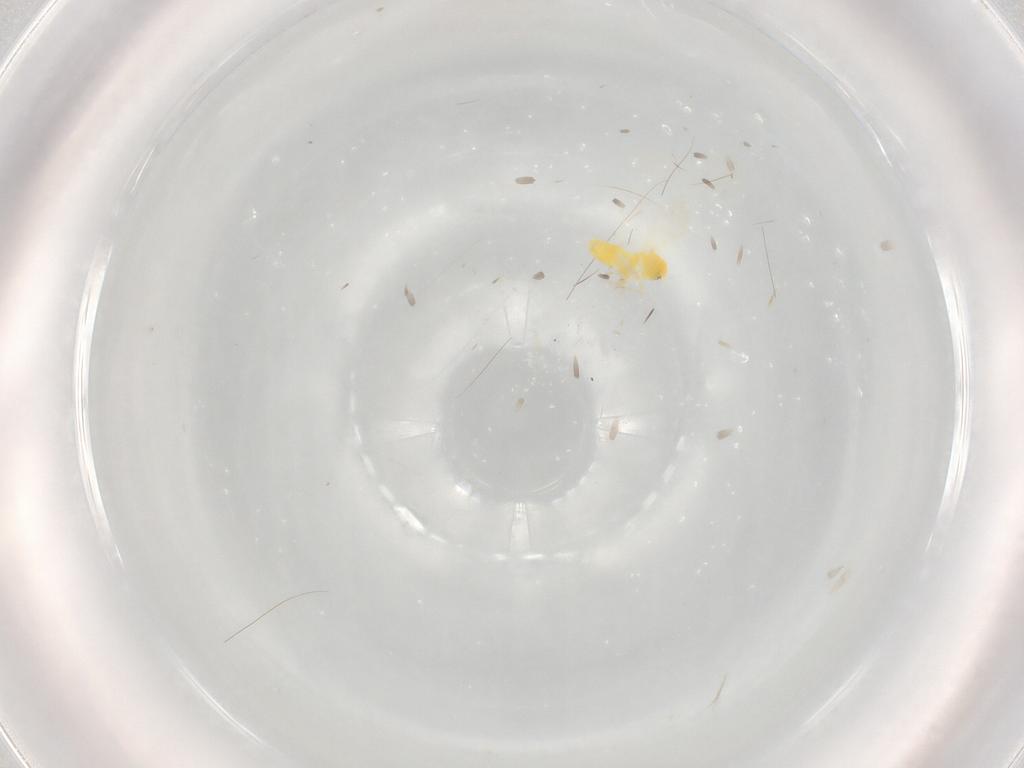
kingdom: Animalia
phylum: Arthropoda
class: Insecta
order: Hemiptera
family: Aleyrodidae
